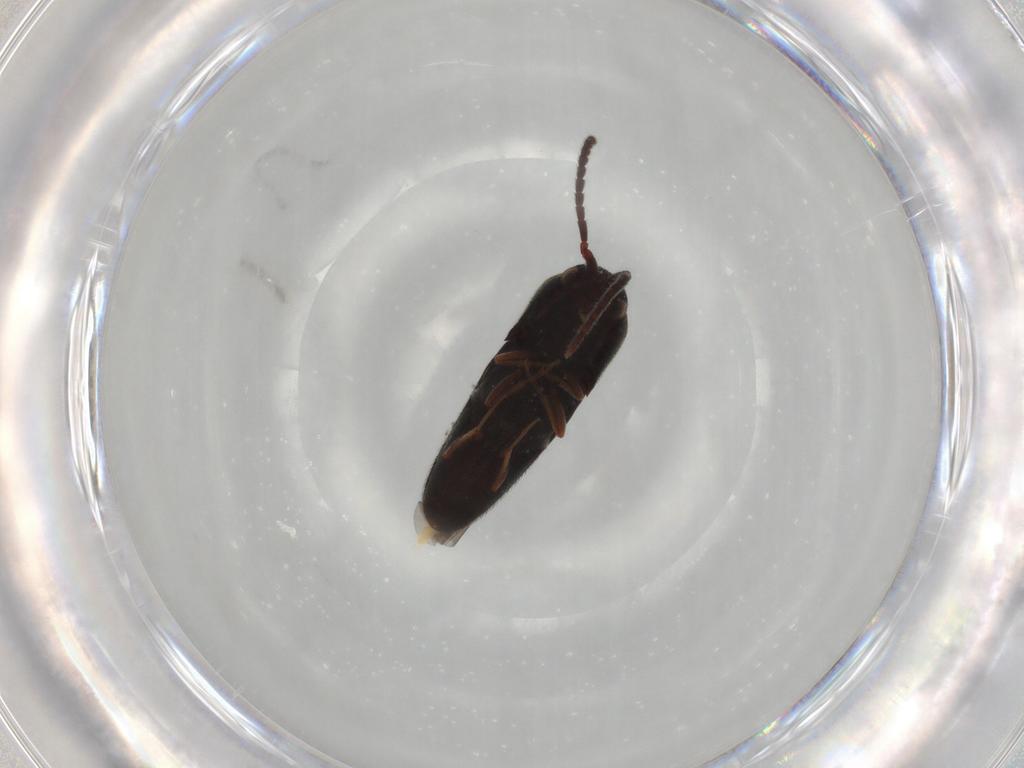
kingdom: Animalia
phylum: Arthropoda
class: Insecta
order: Coleoptera
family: Eucnemidae
